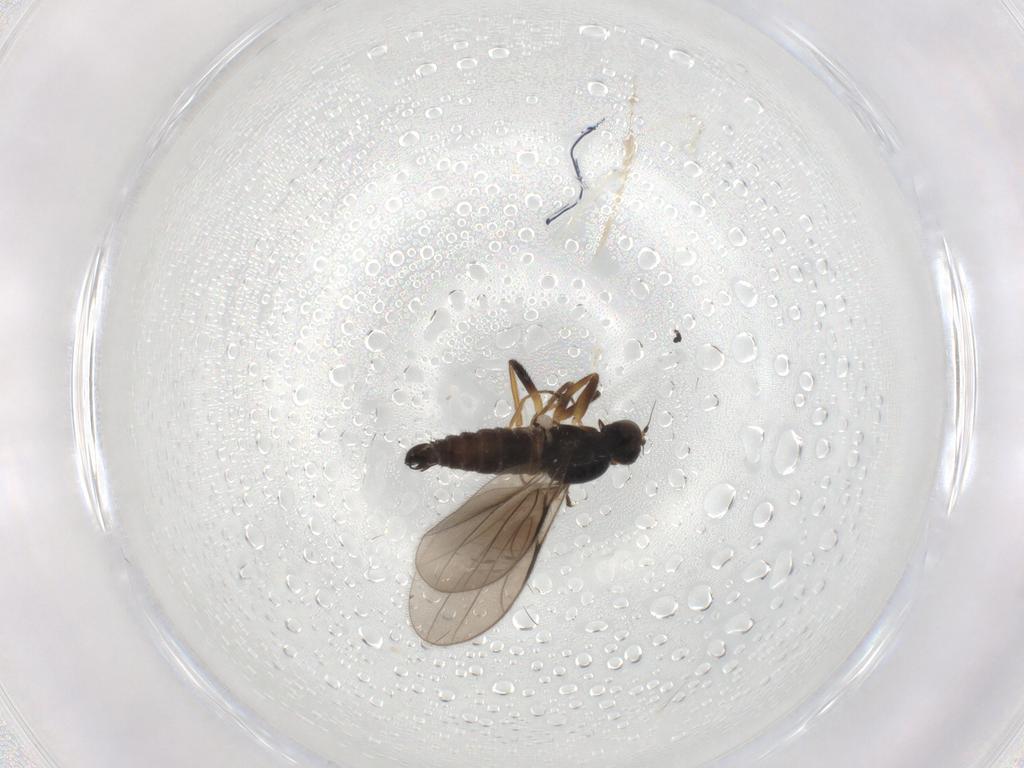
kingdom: Animalia
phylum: Arthropoda
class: Insecta
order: Diptera
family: Hybotidae
